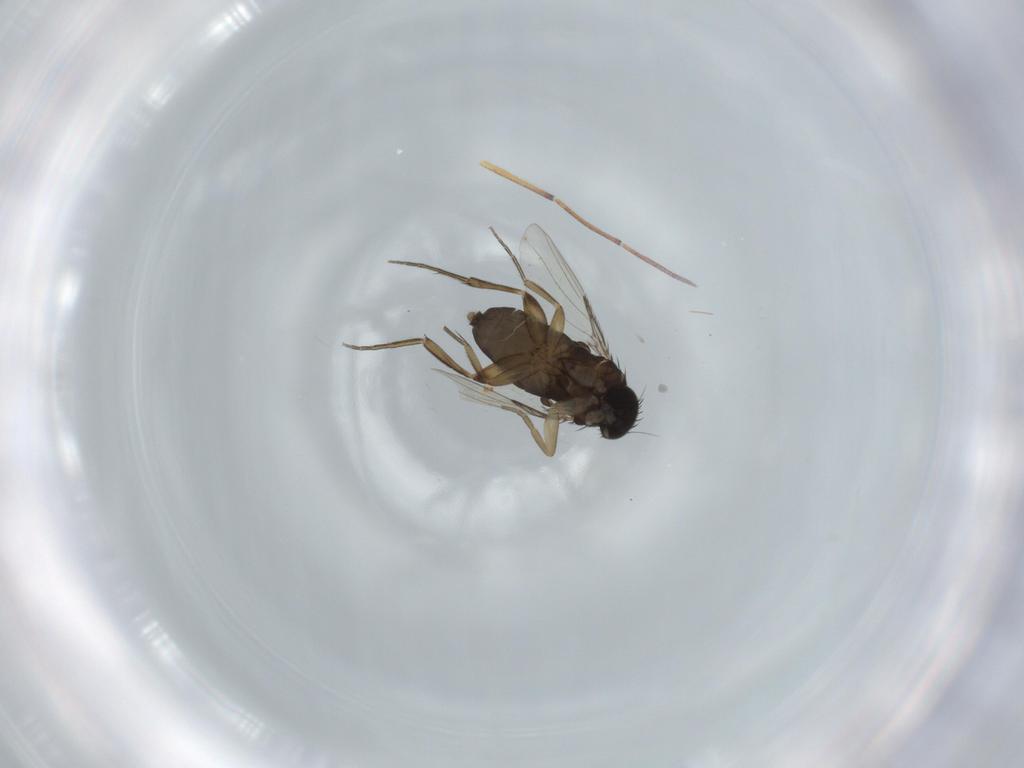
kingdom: Animalia
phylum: Arthropoda
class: Insecta
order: Diptera
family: Phoridae
